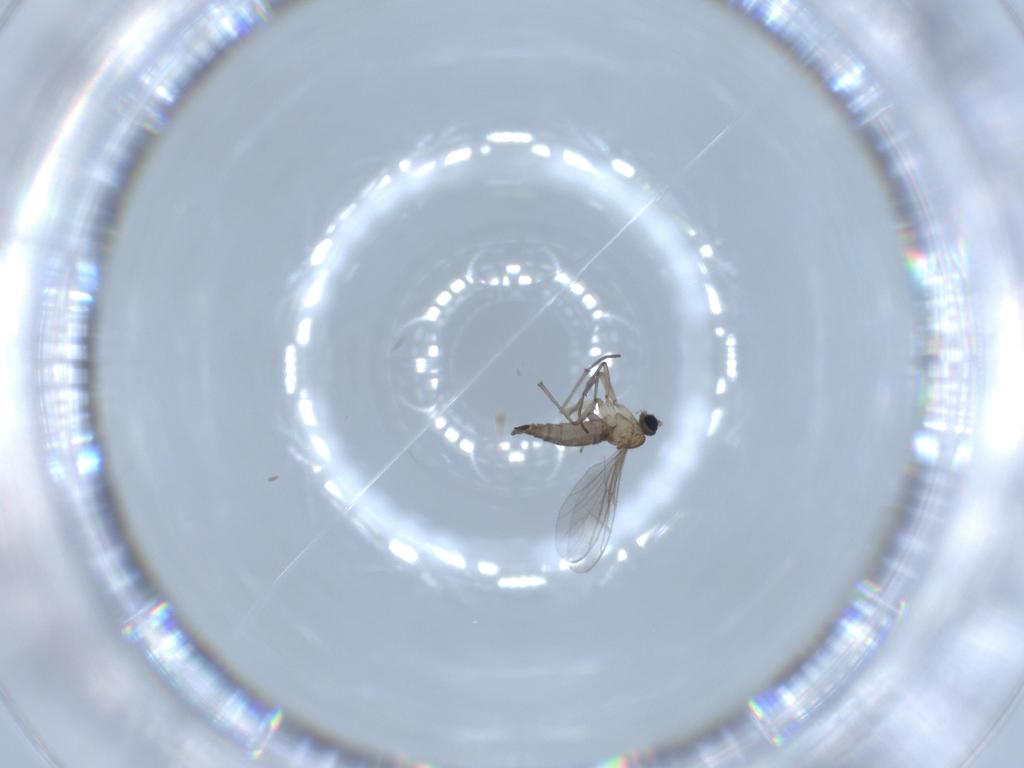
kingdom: Animalia
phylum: Arthropoda
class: Insecta
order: Diptera
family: Sciaridae
